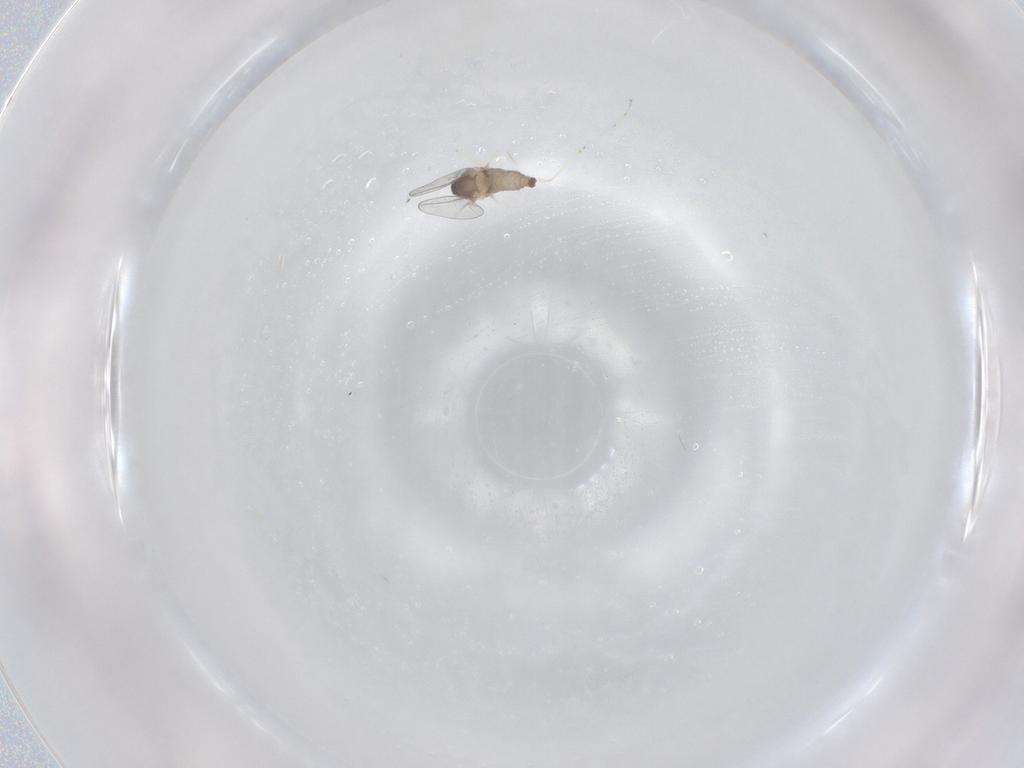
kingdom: Animalia
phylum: Arthropoda
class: Insecta
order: Diptera
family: Cecidomyiidae
